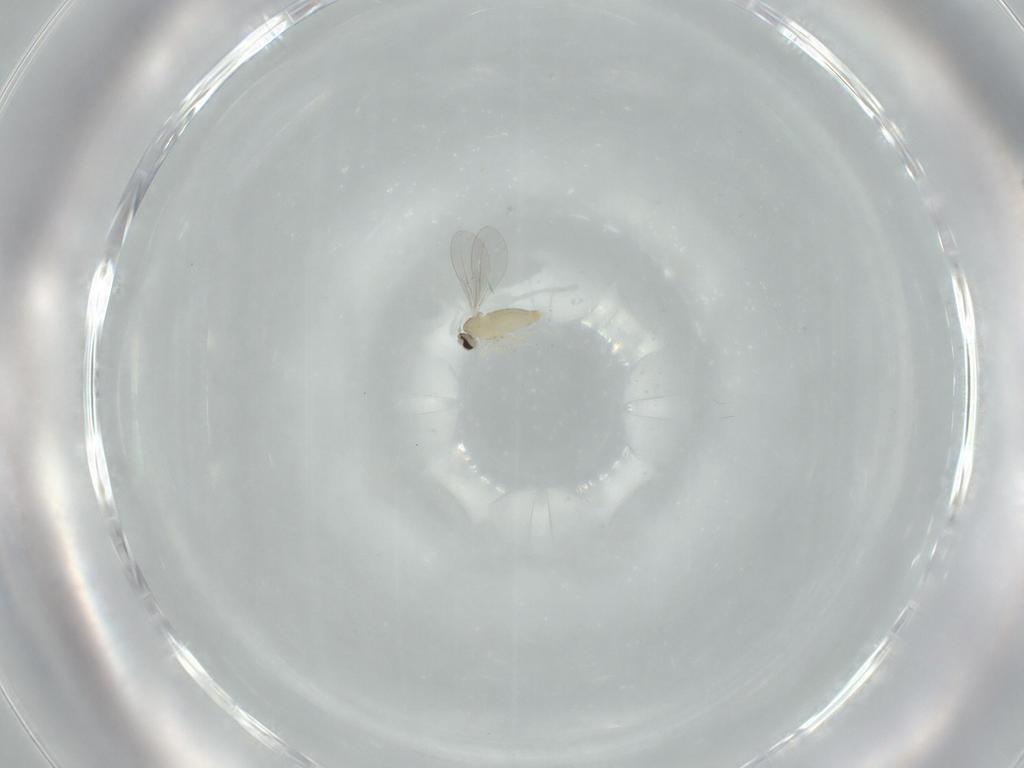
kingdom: Animalia
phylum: Arthropoda
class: Insecta
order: Diptera
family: Cecidomyiidae
